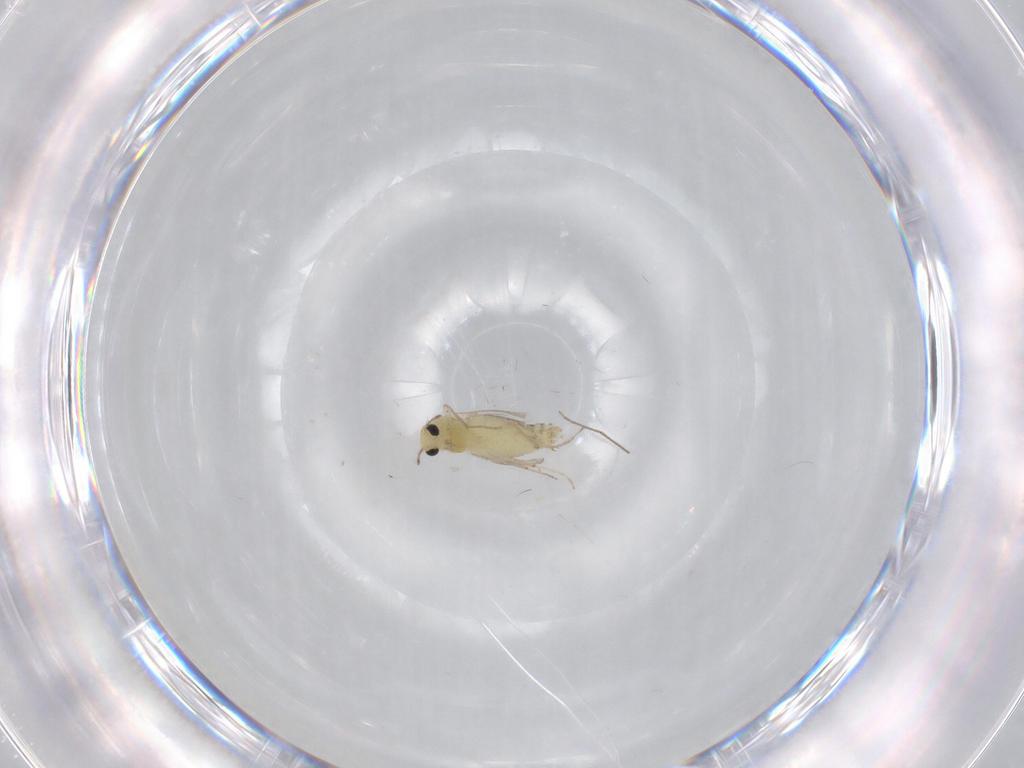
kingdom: Animalia
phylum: Arthropoda
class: Insecta
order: Diptera
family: Chironomidae
